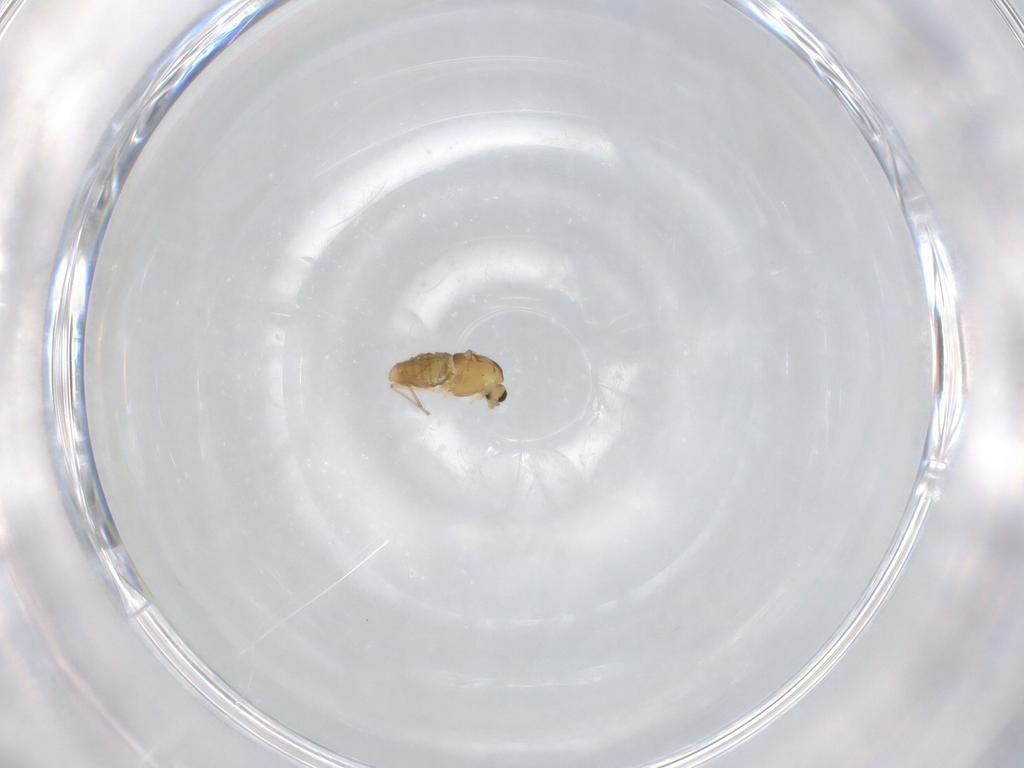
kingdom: Animalia
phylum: Arthropoda
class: Insecta
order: Diptera
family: Chironomidae
